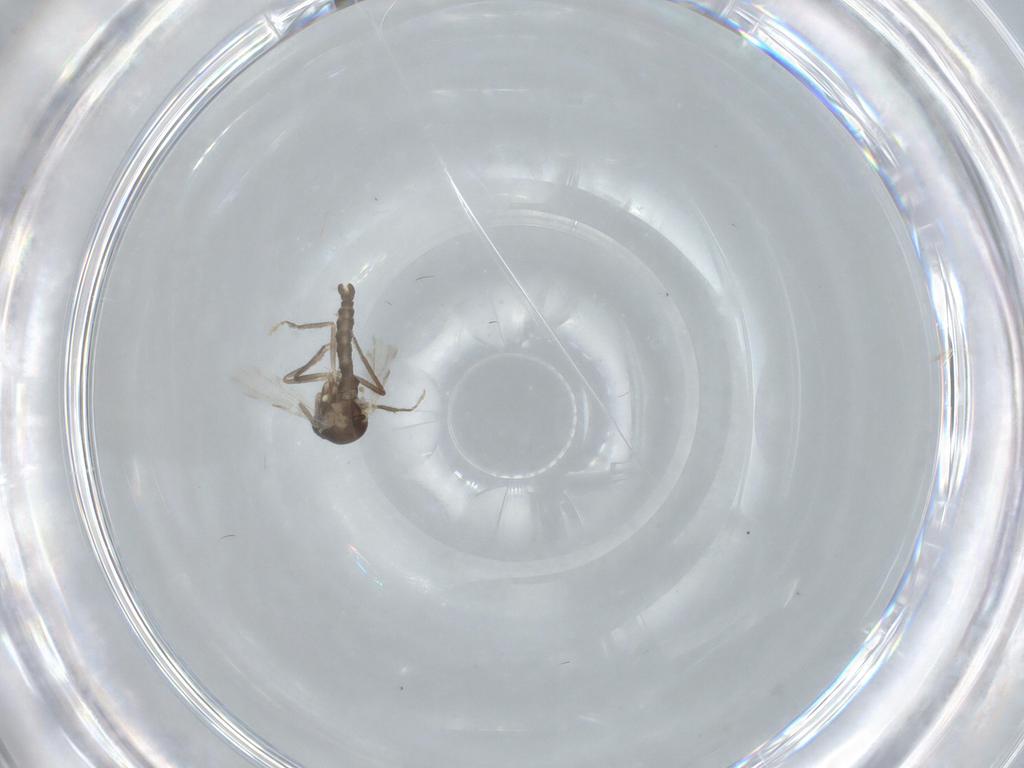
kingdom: Animalia
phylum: Arthropoda
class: Insecta
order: Diptera
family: Ceratopogonidae
